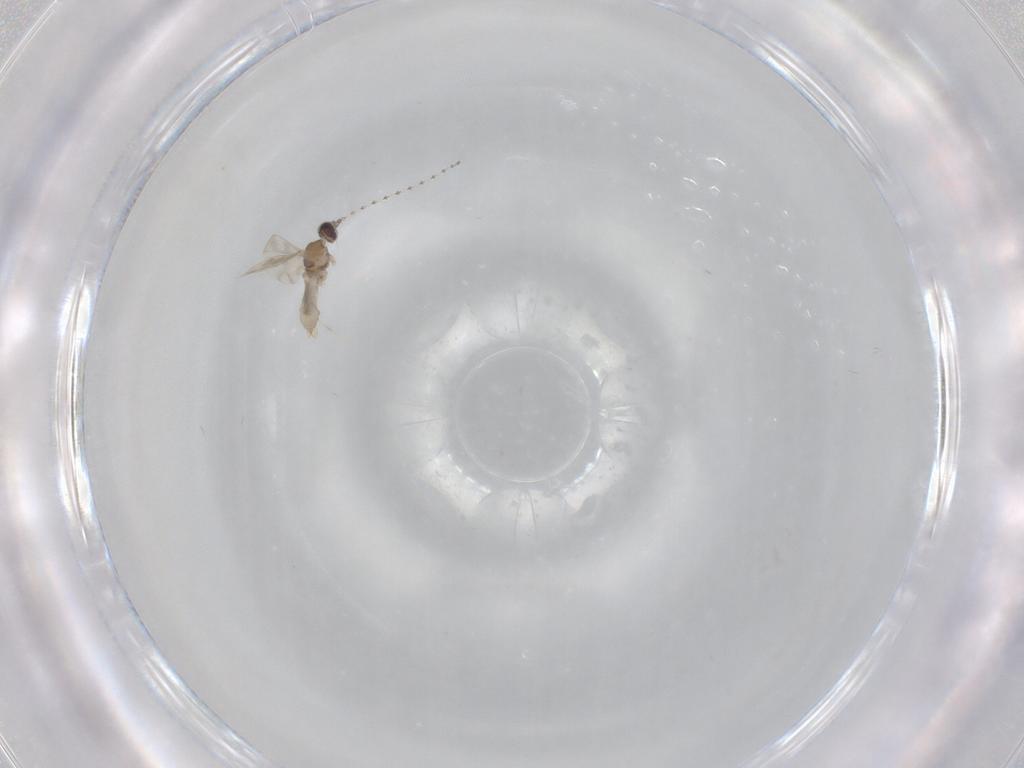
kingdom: Animalia
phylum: Arthropoda
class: Insecta
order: Diptera
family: Cecidomyiidae
